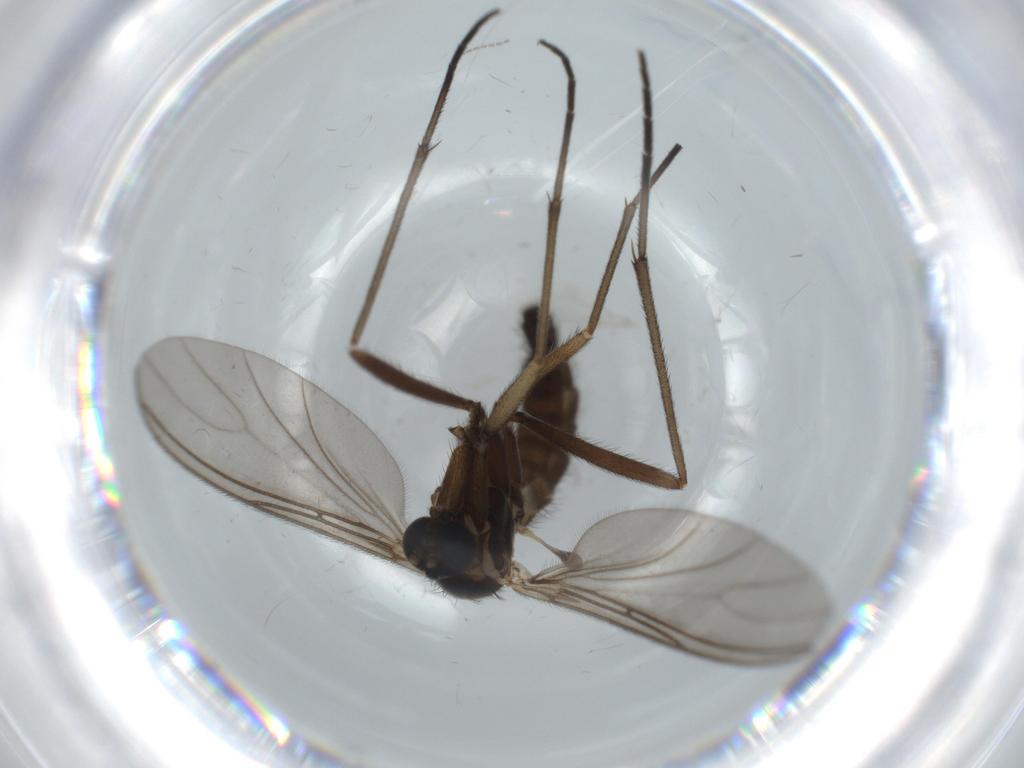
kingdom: Animalia
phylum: Arthropoda
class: Insecta
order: Diptera
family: Sciaridae
